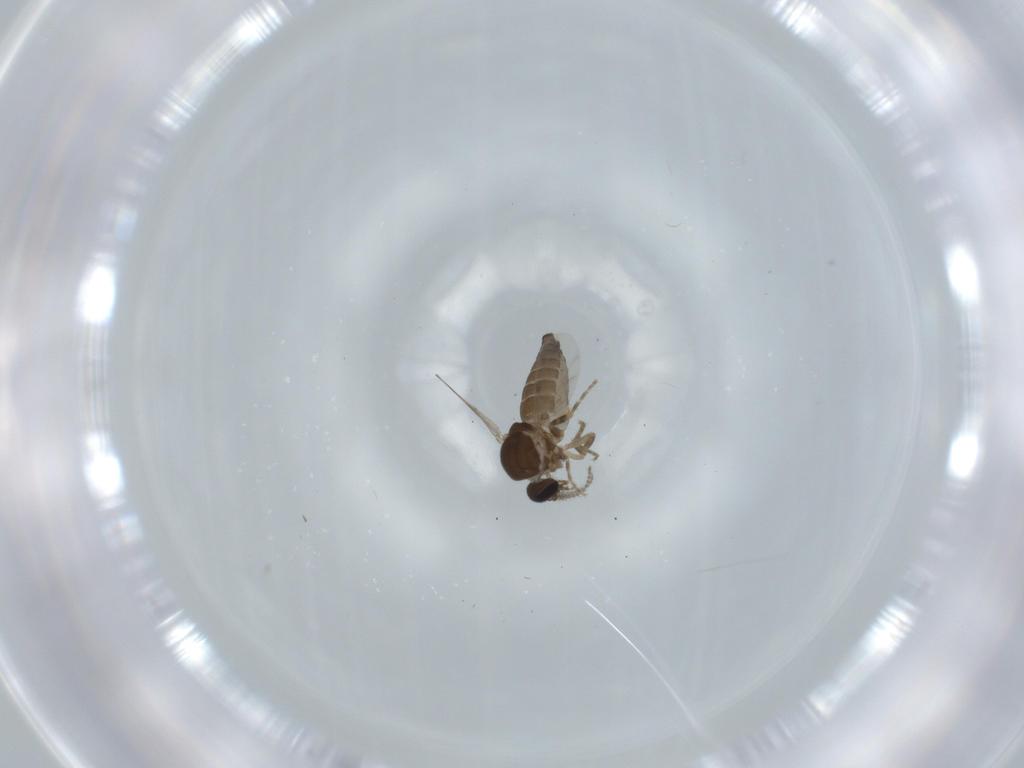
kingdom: Animalia
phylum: Arthropoda
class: Insecta
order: Diptera
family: Ceratopogonidae
